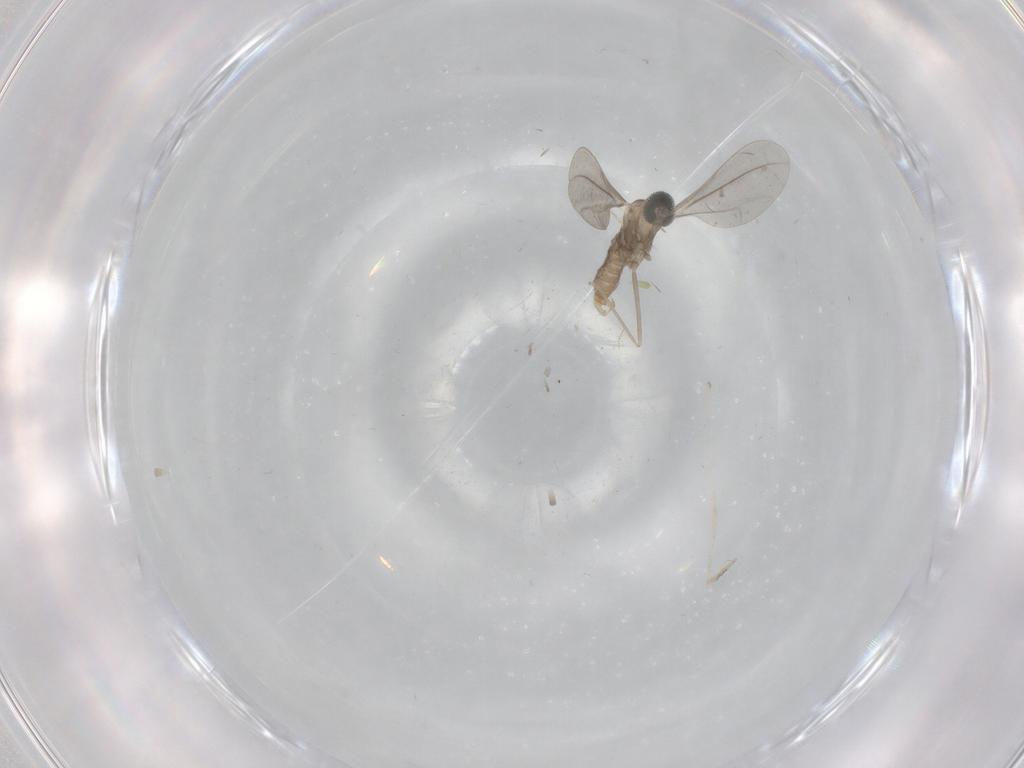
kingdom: Animalia
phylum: Arthropoda
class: Insecta
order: Diptera
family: Cecidomyiidae
